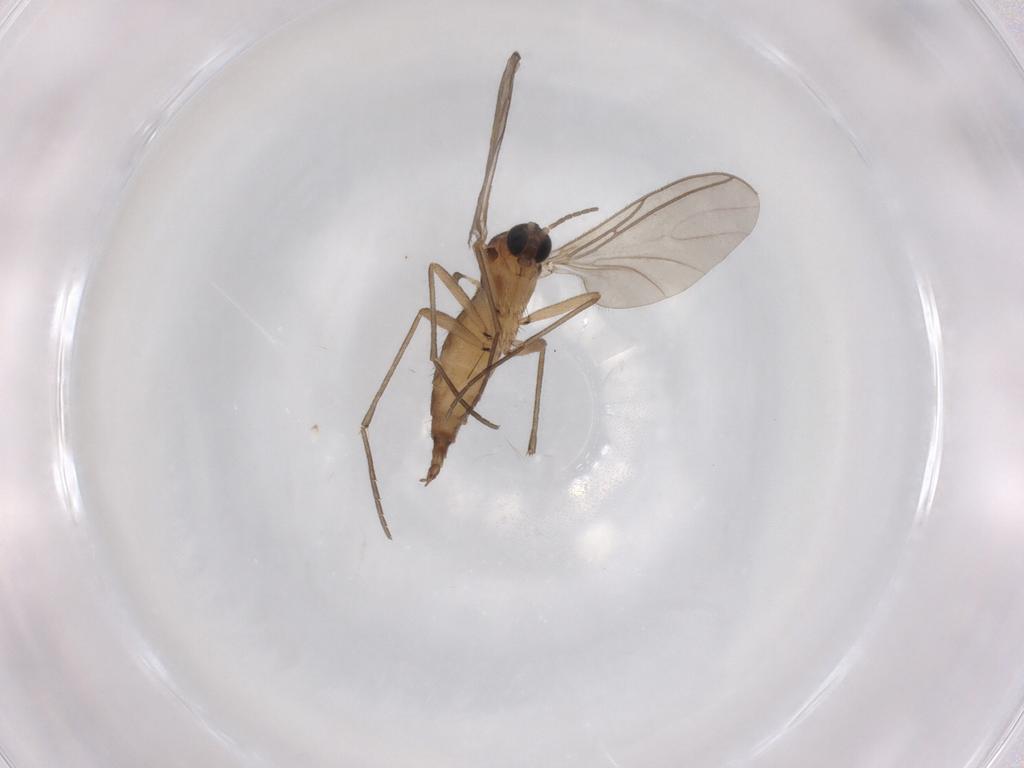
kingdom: Animalia
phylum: Arthropoda
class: Insecta
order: Diptera
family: Sciaridae
